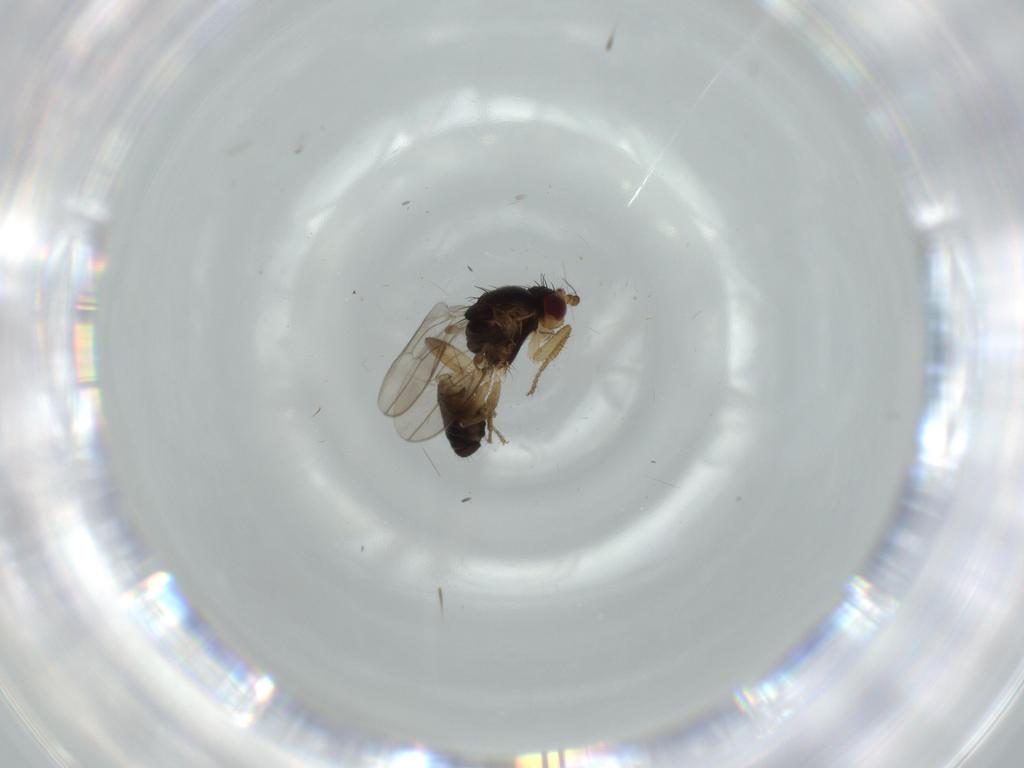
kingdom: Animalia
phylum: Arthropoda
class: Insecta
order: Diptera
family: Sphaeroceridae
